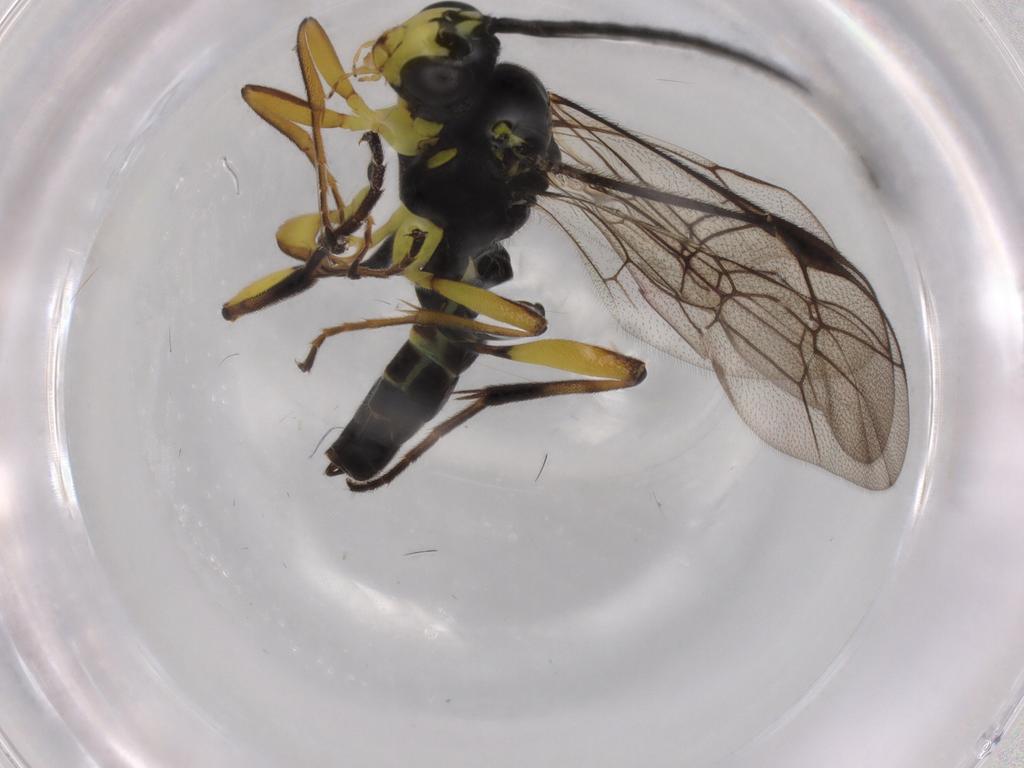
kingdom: Animalia
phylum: Arthropoda
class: Insecta
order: Hymenoptera
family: Ichneumonidae
